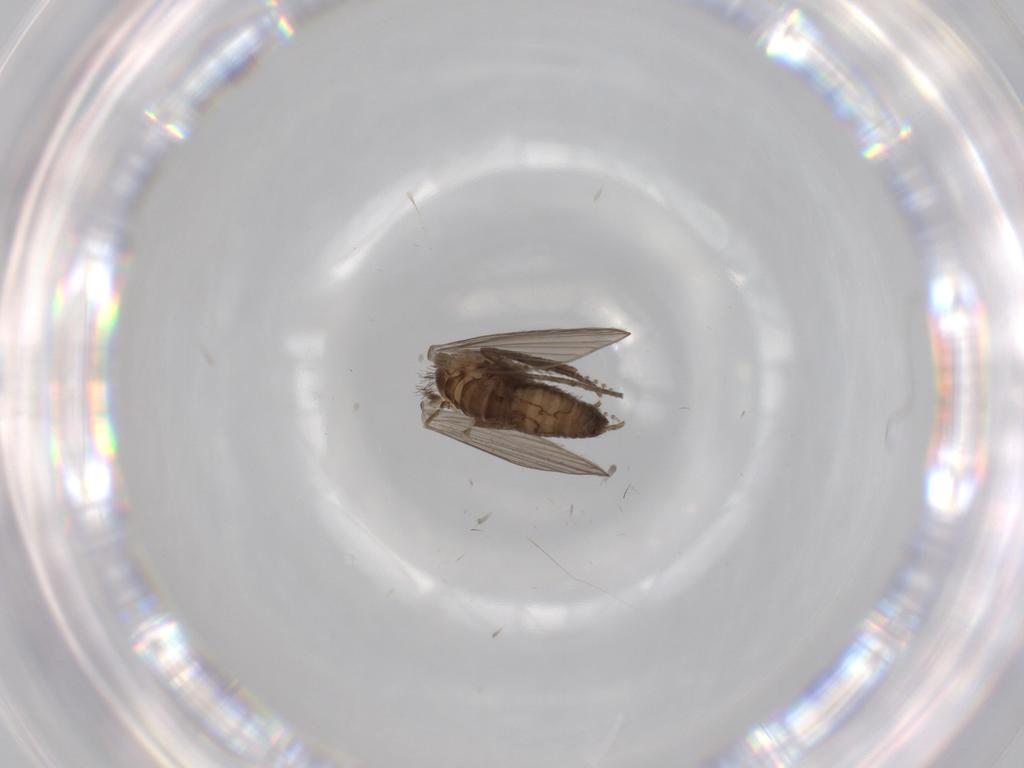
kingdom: Animalia
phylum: Arthropoda
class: Insecta
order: Diptera
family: Psychodidae
